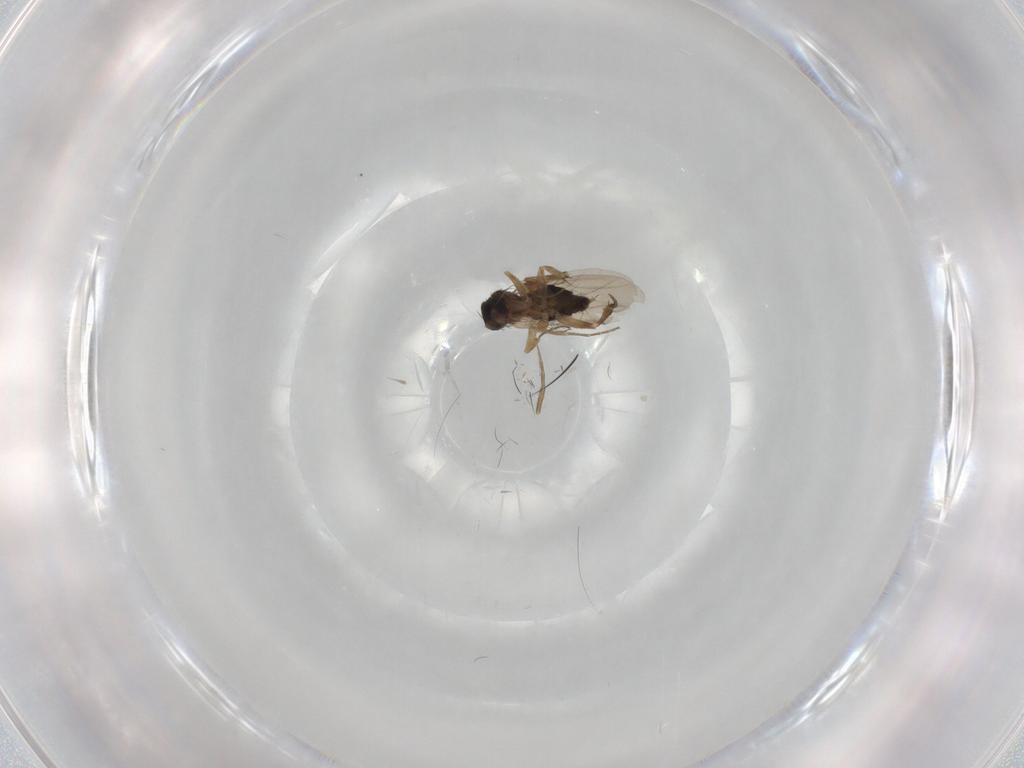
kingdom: Animalia
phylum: Arthropoda
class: Insecta
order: Diptera
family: Phoridae
